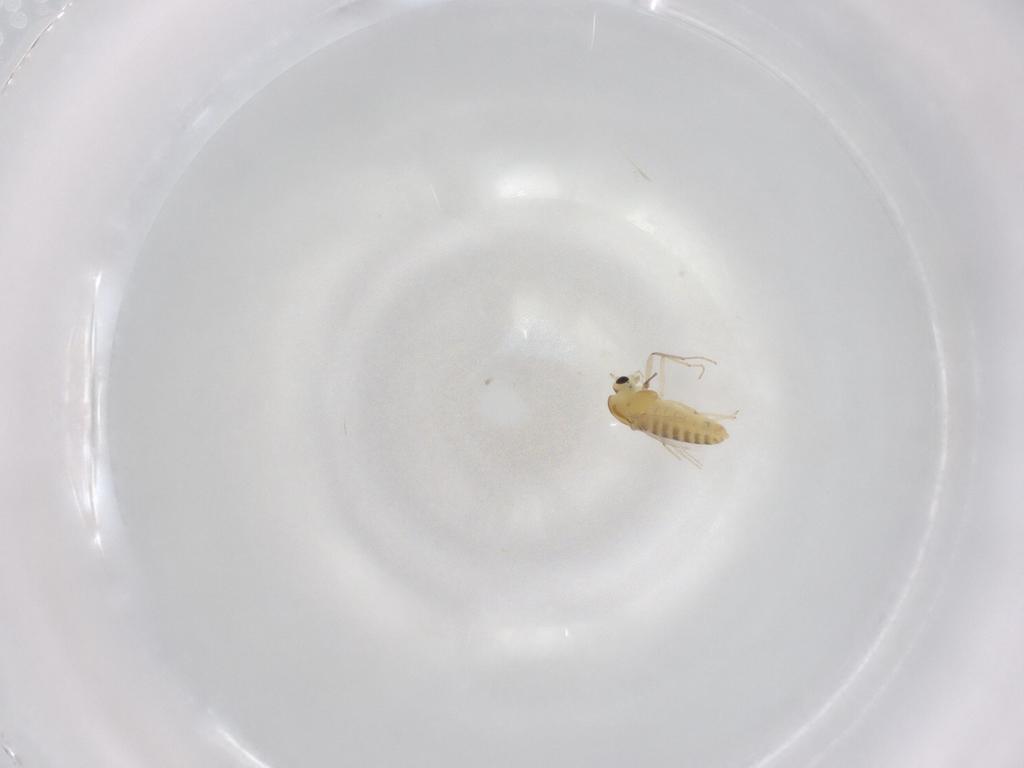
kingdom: Animalia
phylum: Arthropoda
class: Insecta
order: Diptera
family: Chironomidae
